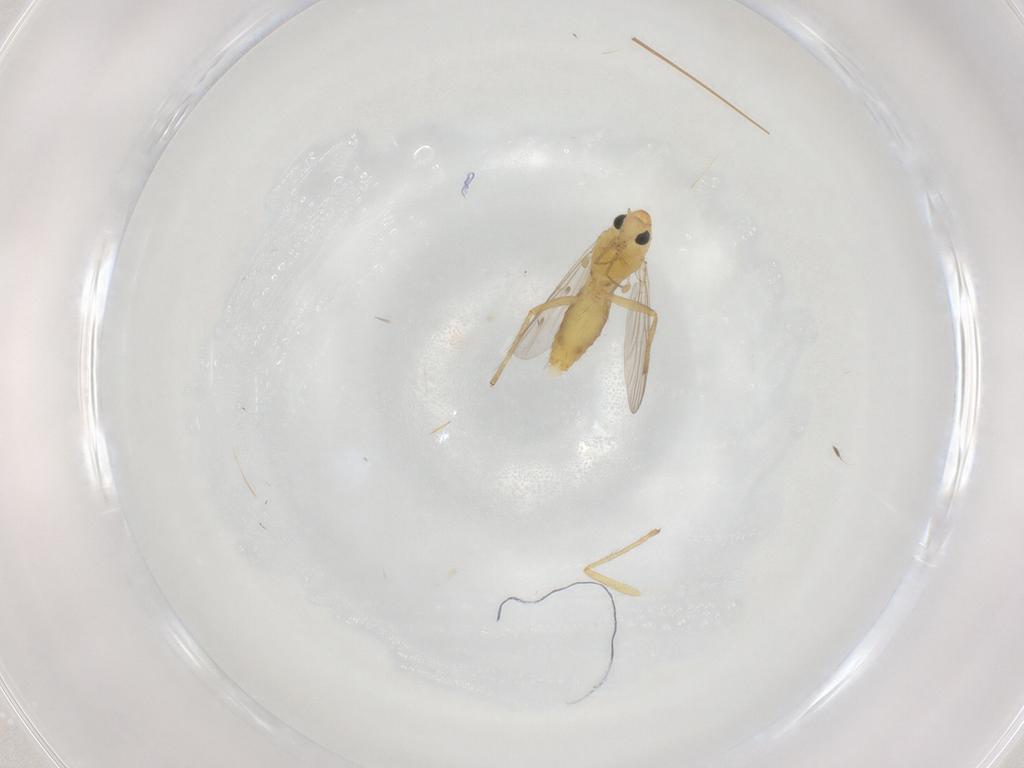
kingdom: Animalia
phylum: Arthropoda
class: Insecta
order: Diptera
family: Chironomidae
